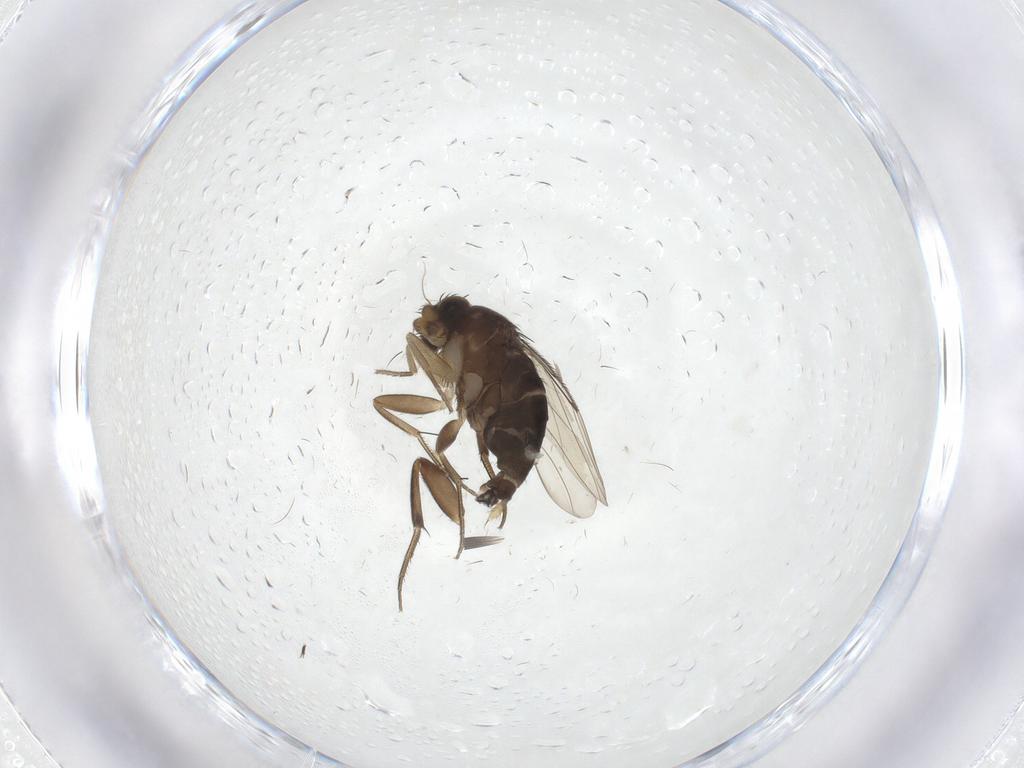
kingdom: Animalia
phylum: Arthropoda
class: Insecta
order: Diptera
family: Phoridae
